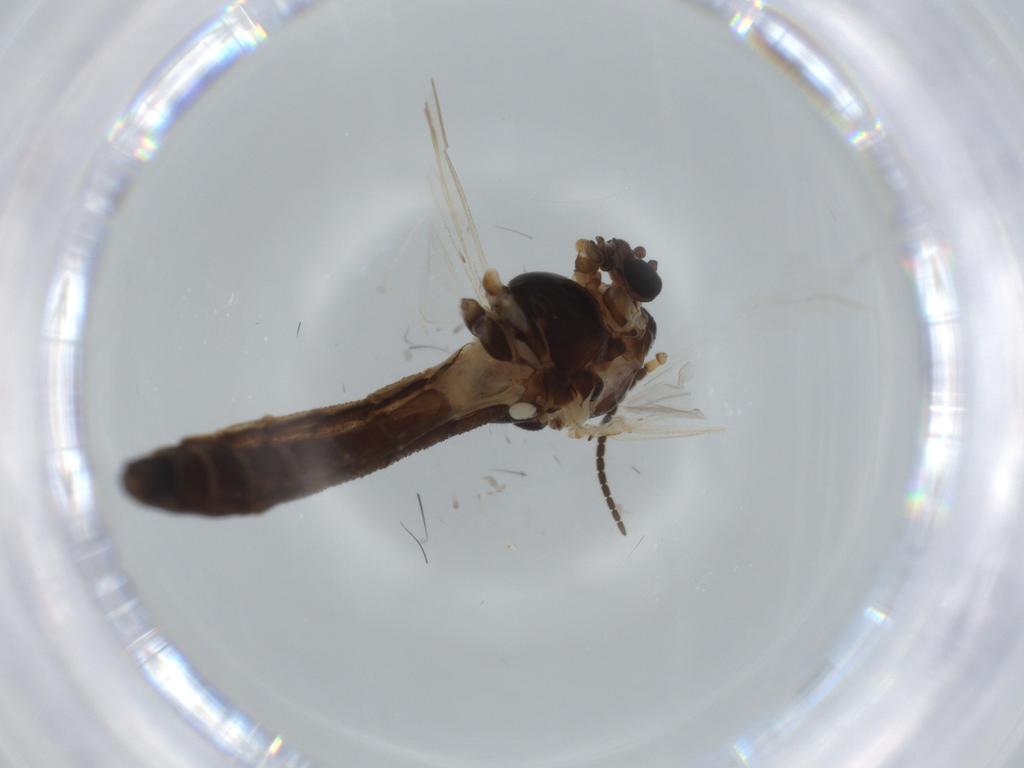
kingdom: Animalia
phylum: Arthropoda
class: Insecta
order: Diptera
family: Chironomidae
